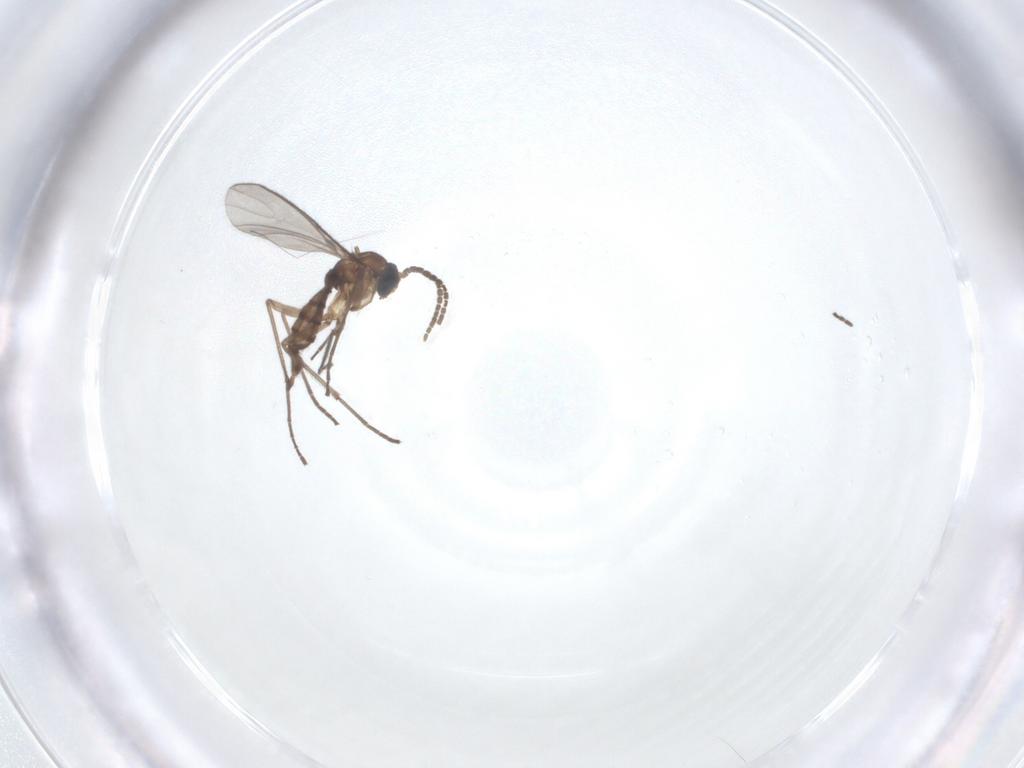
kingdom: Animalia
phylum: Arthropoda
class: Insecta
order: Diptera
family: Sciaridae
